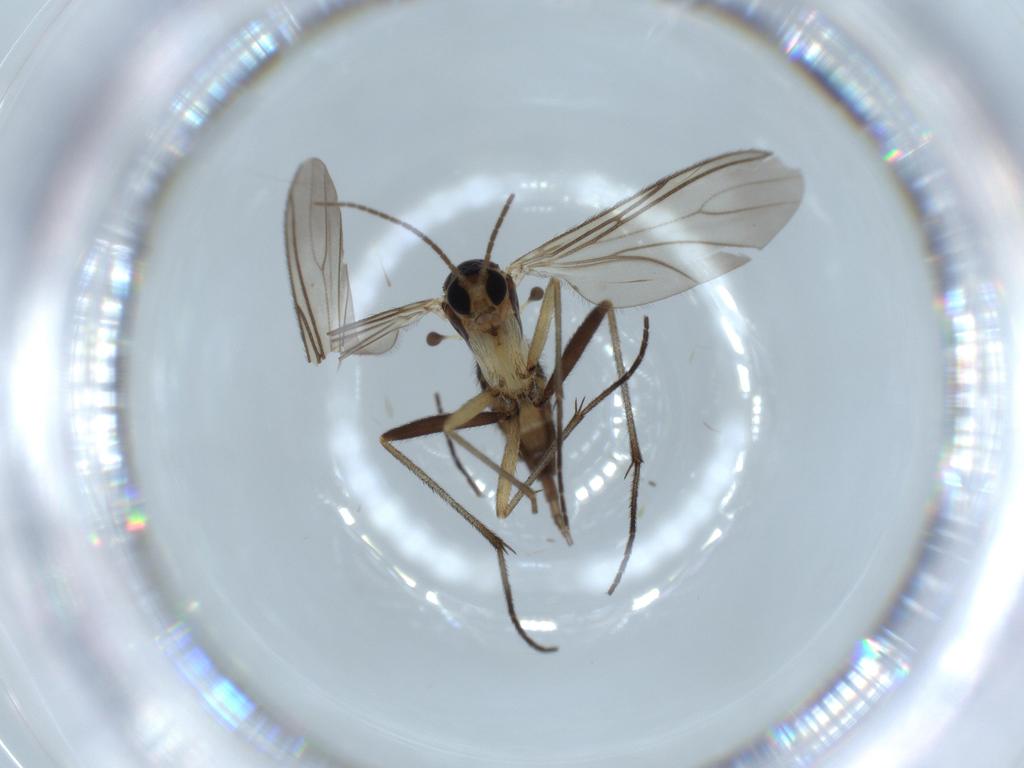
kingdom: Animalia
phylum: Arthropoda
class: Insecta
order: Diptera
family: Sciaridae
